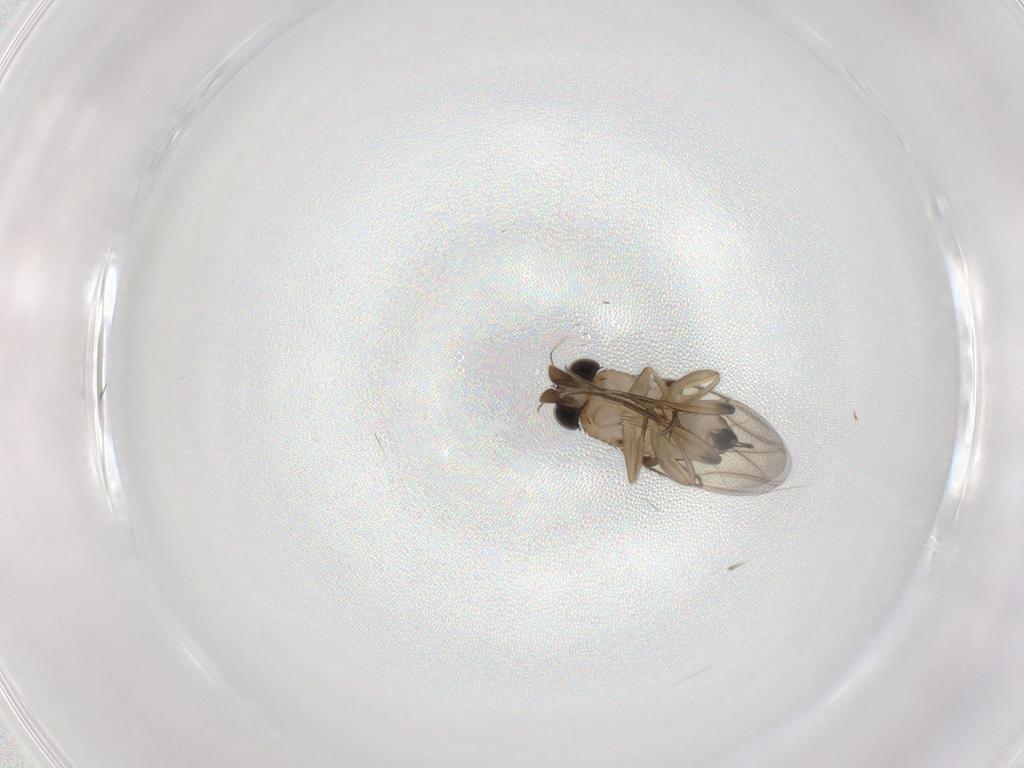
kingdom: Animalia
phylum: Arthropoda
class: Insecta
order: Diptera
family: Phoridae
